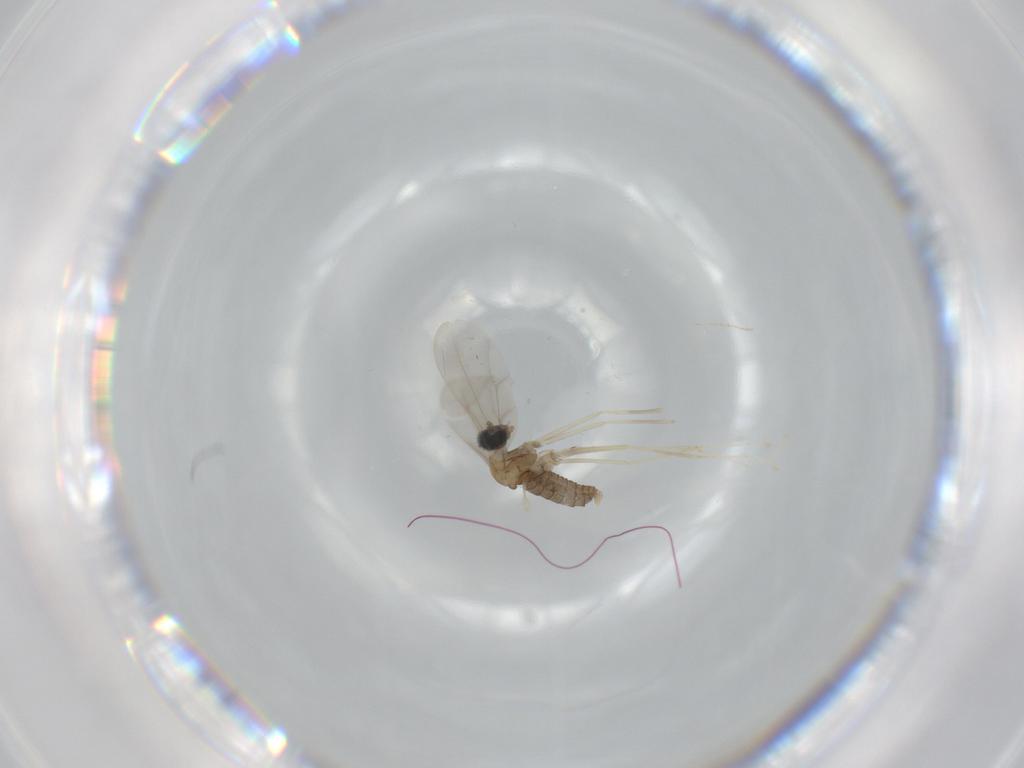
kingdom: Animalia
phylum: Arthropoda
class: Insecta
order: Diptera
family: Cecidomyiidae
